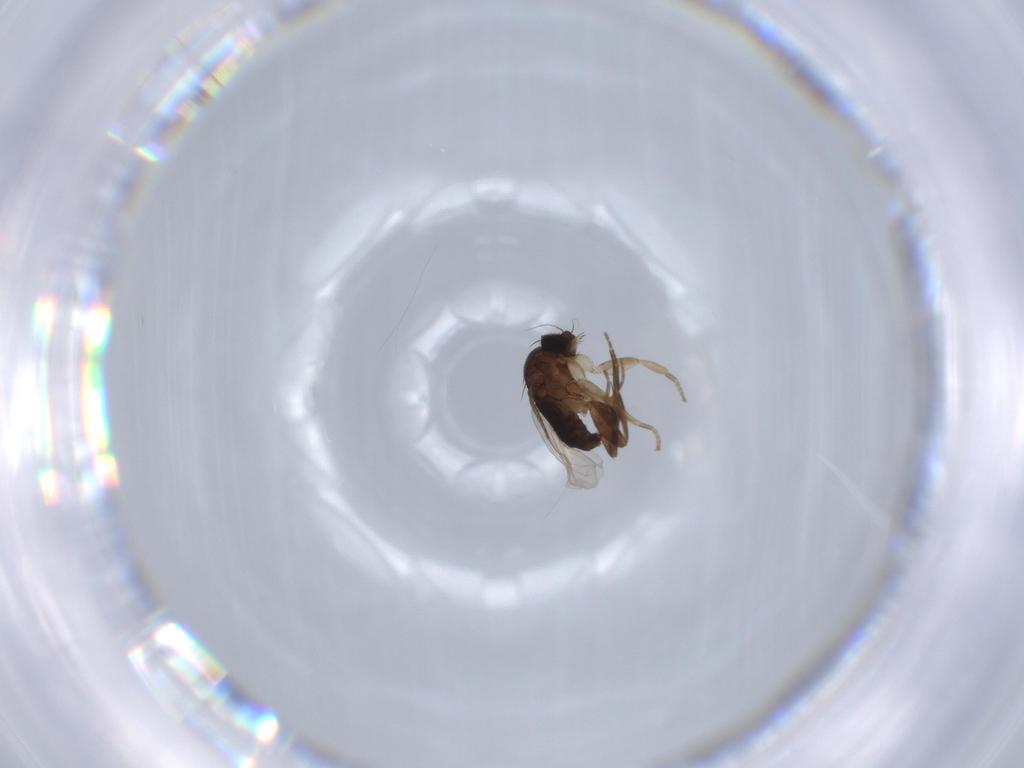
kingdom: Animalia
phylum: Arthropoda
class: Insecta
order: Diptera
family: Phoridae
